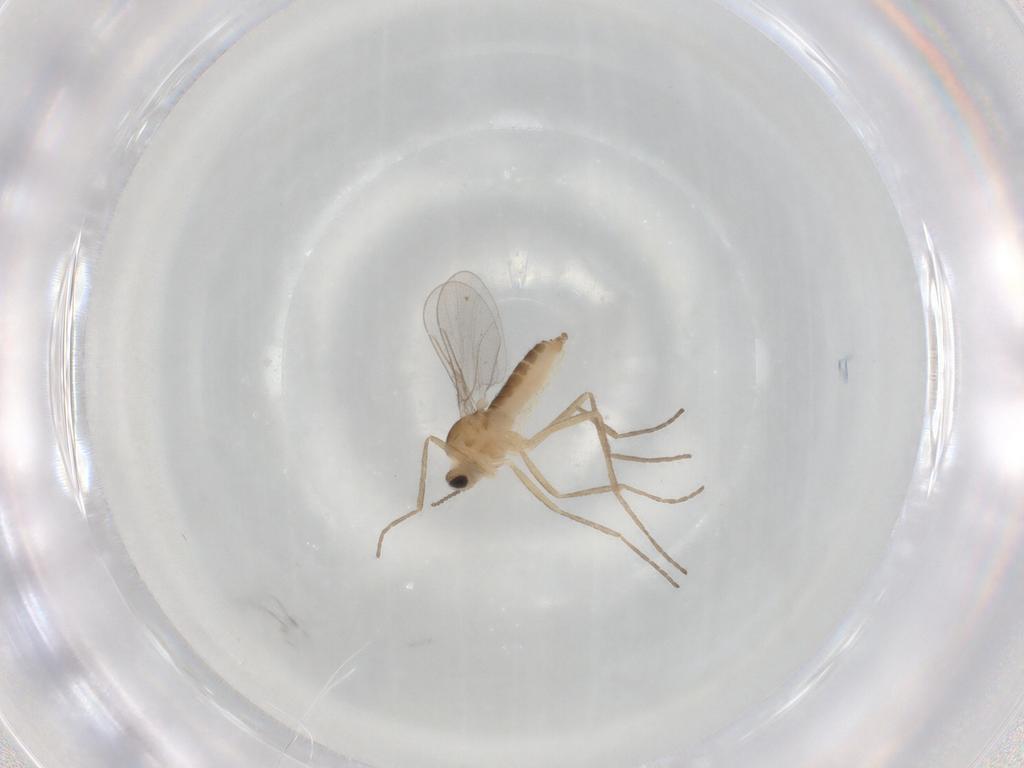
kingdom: Animalia
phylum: Arthropoda
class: Insecta
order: Diptera
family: Cecidomyiidae
